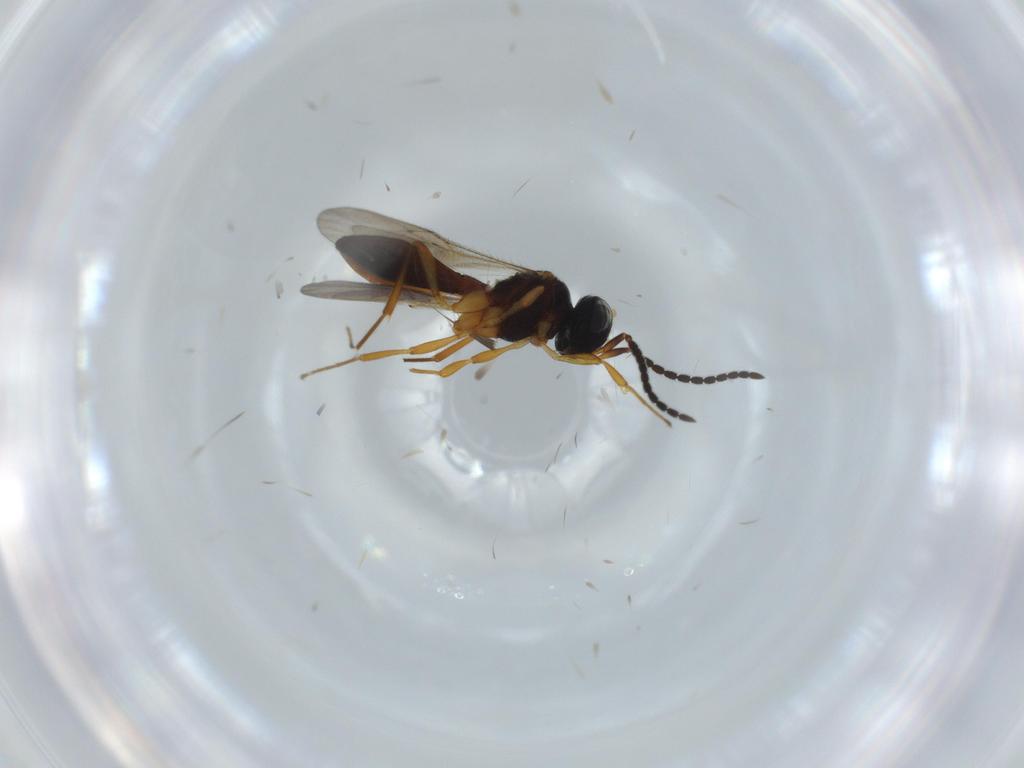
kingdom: Animalia
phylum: Arthropoda
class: Insecta
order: Hymenoptera
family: Scelionidae
